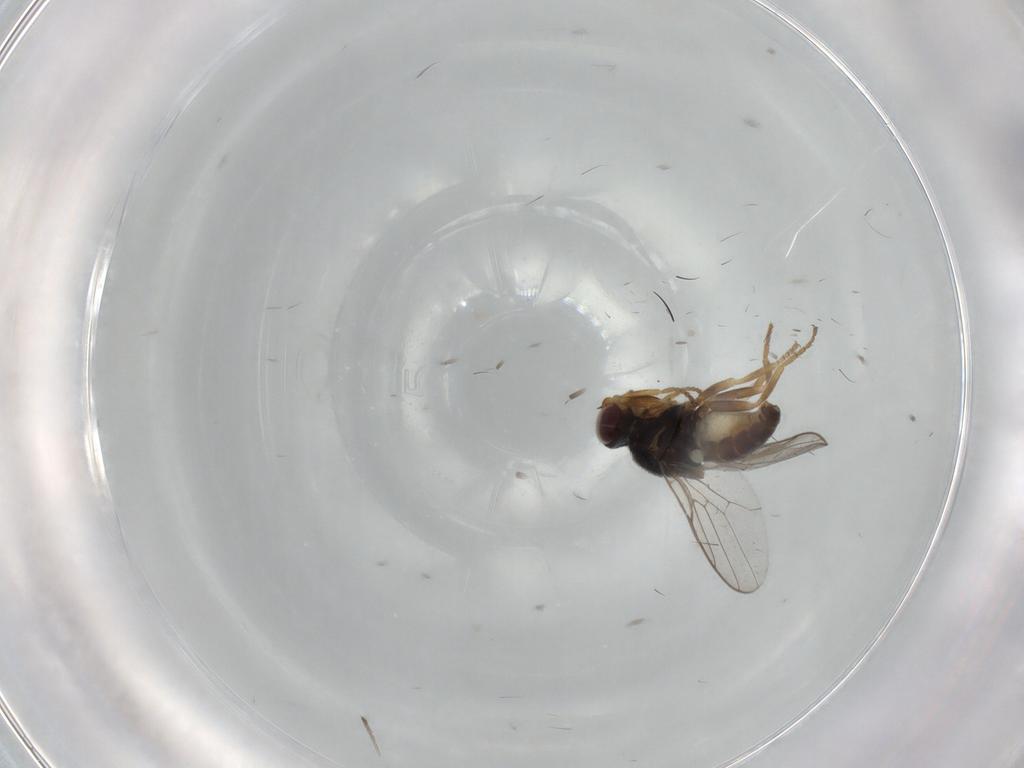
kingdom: Animalia
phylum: Arthropoda
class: Insecta
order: Diptera
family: Chloropidae
